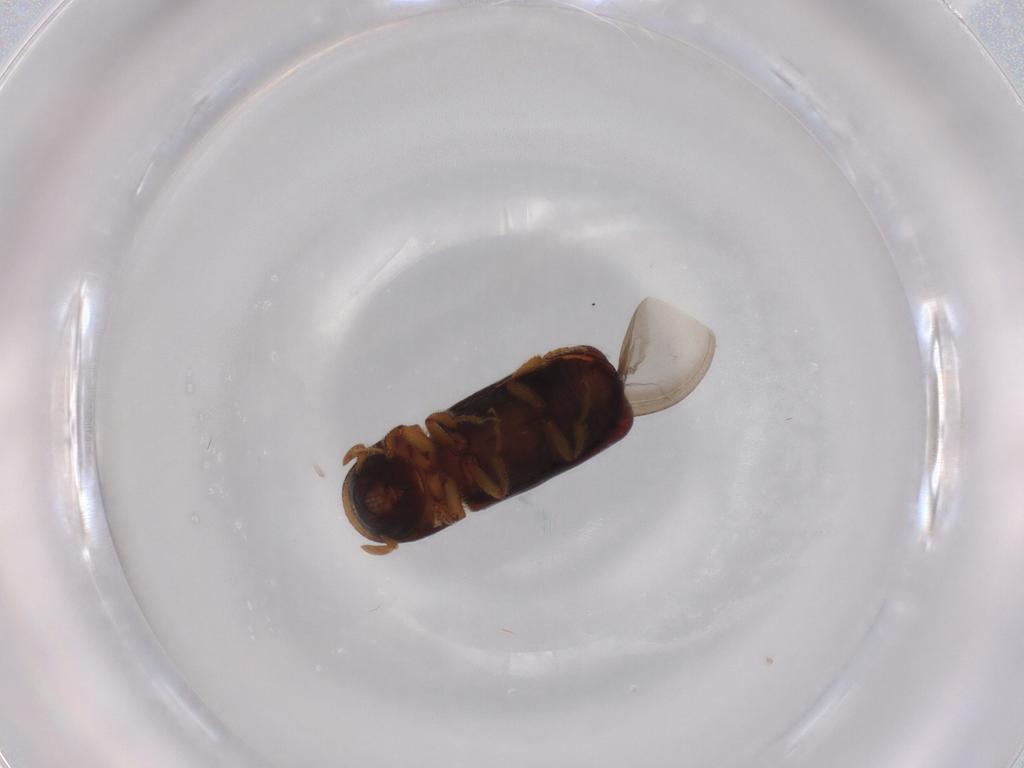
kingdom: Animalia
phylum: Arthropoda
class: Insecta
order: Coleoptera
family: Curculionidae
